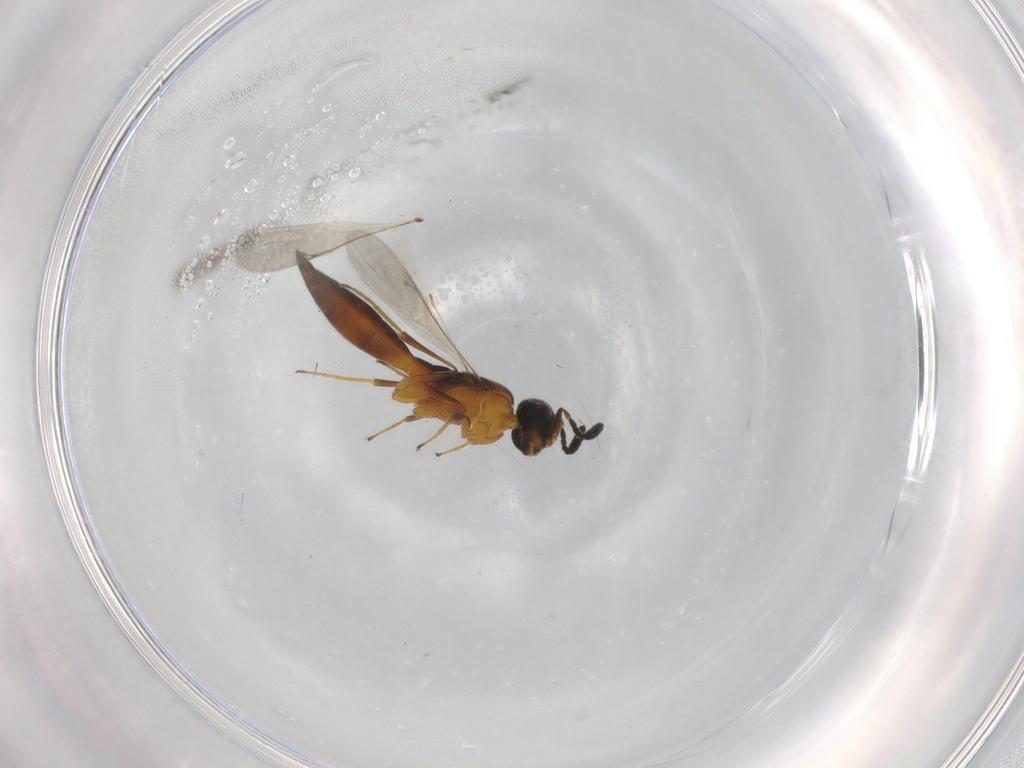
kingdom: Animalia
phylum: Arthropoda
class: Insecta
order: Hymenoptera
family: Scelionidae
